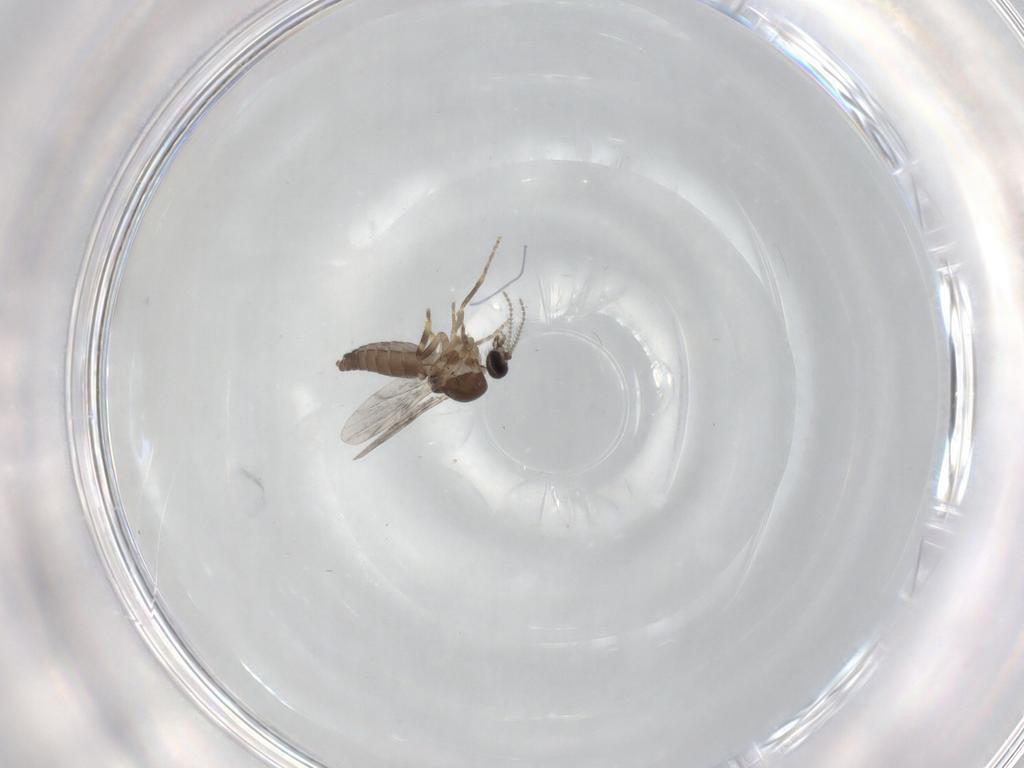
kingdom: Animalia
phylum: Arthropoda
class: Insecta
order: Diptera
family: Ceratopogonidae
